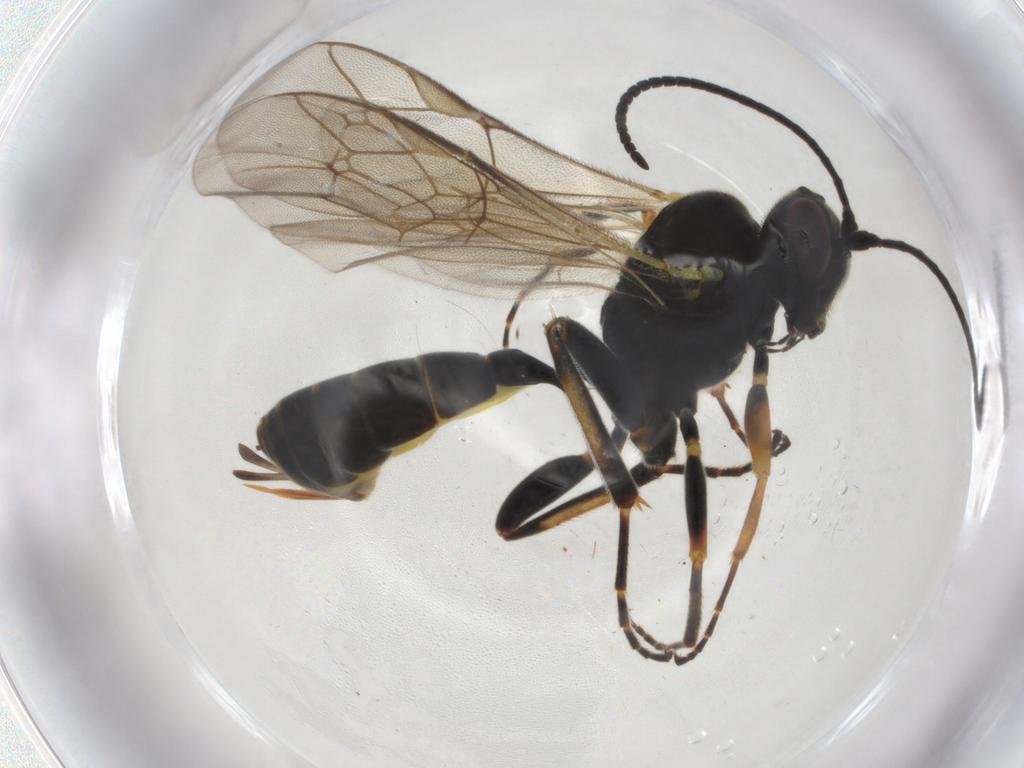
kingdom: Animalia
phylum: Arthropoda
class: Insecta
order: Hymenoptera
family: Ichneumonidae
